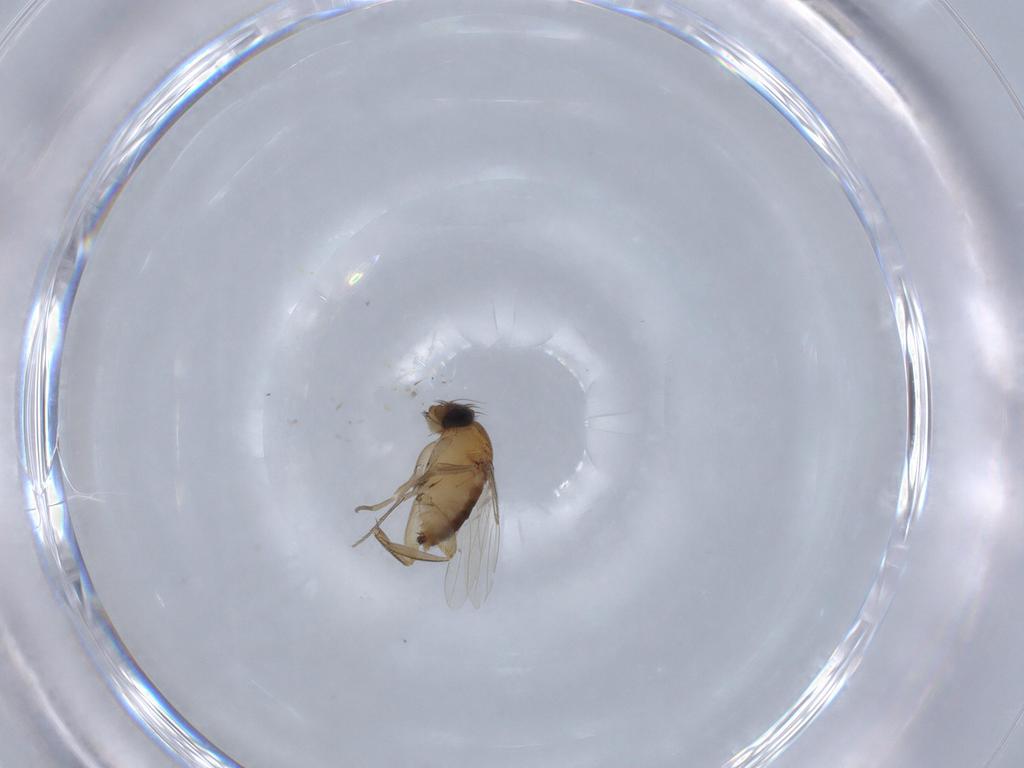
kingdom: Animalia
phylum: Arthropoda
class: Insecta
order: Diptera
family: Phoridae
